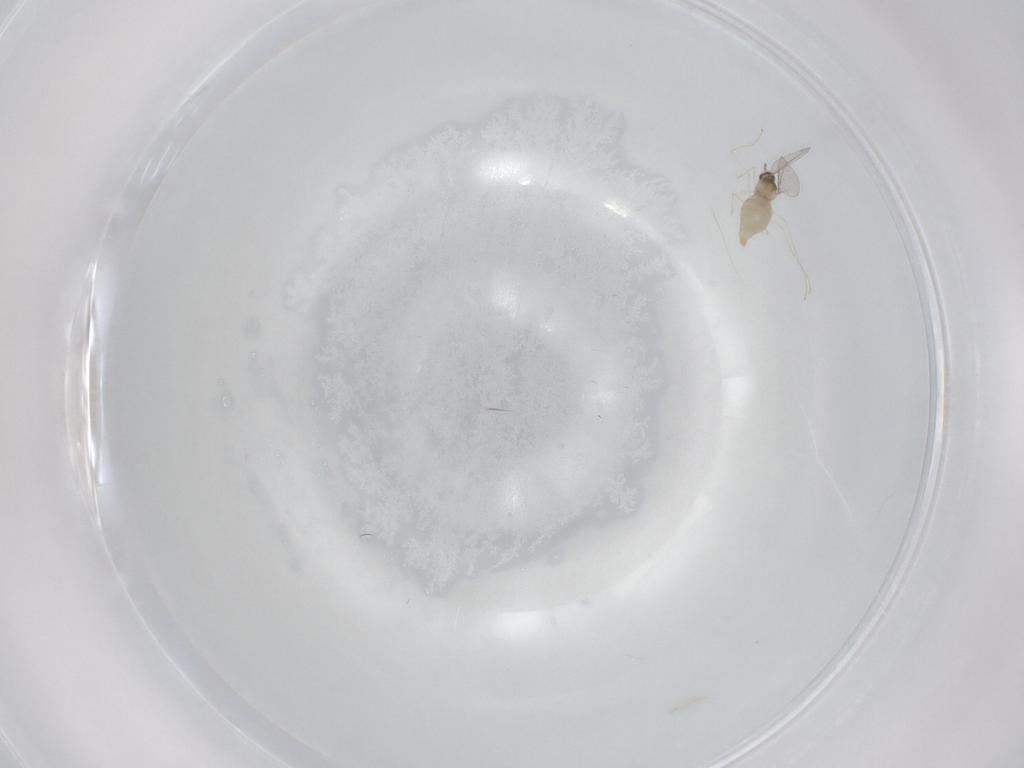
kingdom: Animalia
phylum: Arthropoda
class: Insecta
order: Diptera
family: Cecidomyiidae
